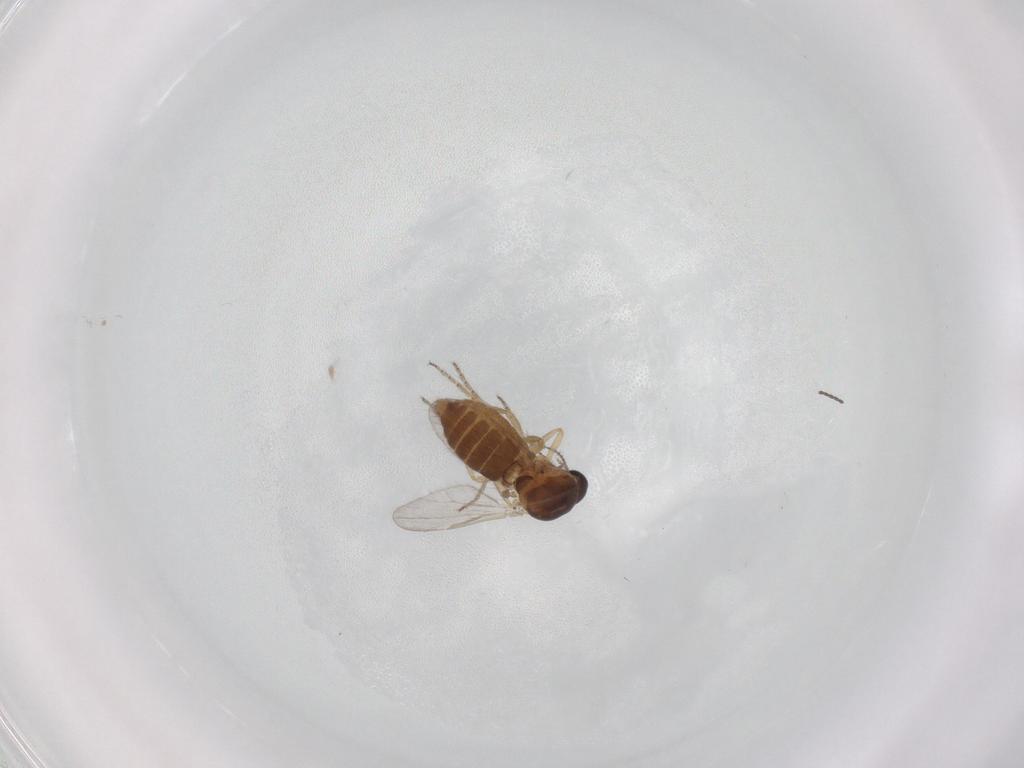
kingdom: Animalia
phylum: Arthropoda
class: Insecta
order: Diptera
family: Ceratopogonidae
